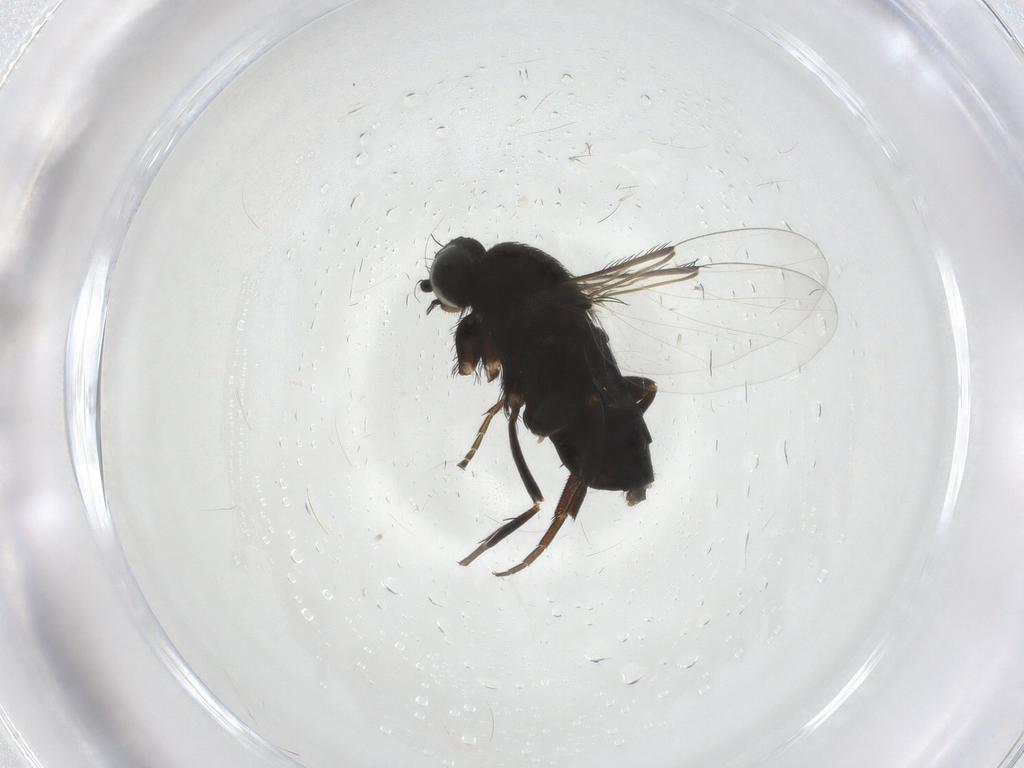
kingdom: Animalia
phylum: Arthropoda
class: Insecta
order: Diptera
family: Phoridae
